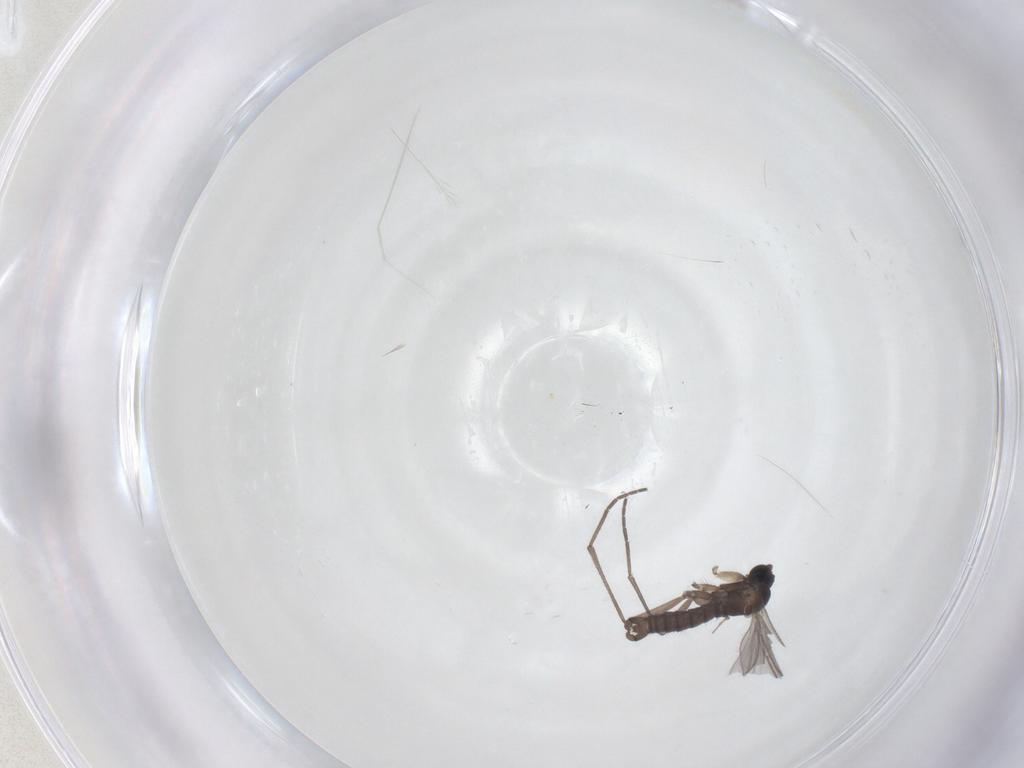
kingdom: Animalia
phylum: Arthropoda
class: Insecta
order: Diptera
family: Sciaridae
